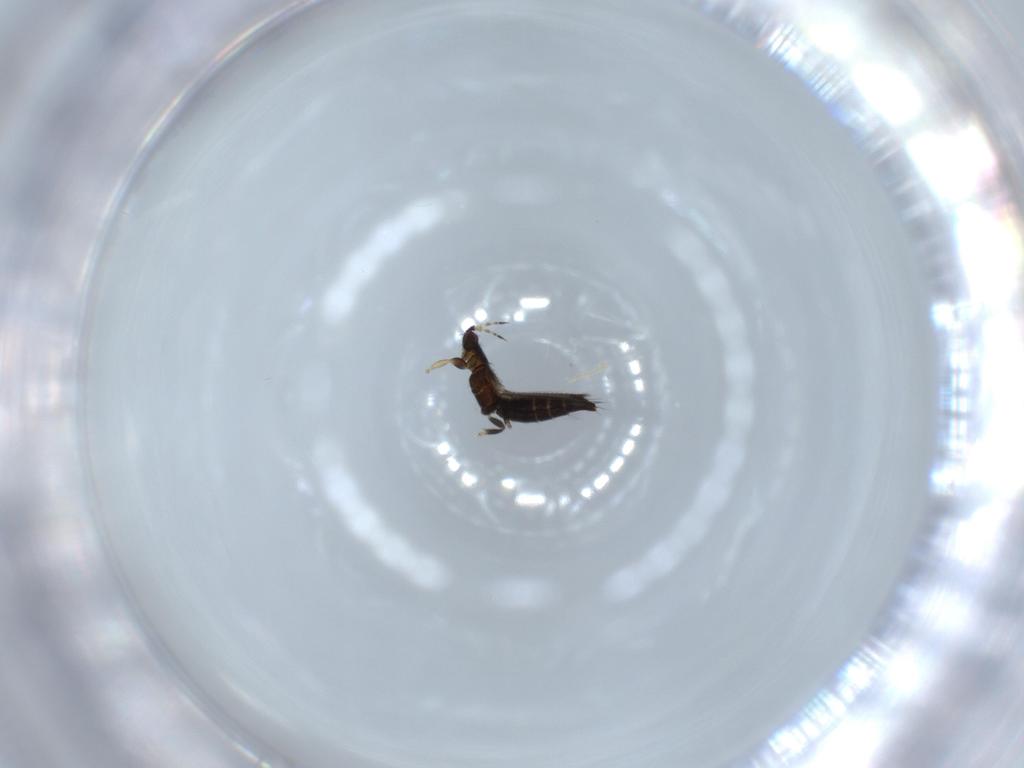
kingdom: Animalia
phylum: Arthropoda
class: Insecta
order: Thysanoptera
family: Thripidae
